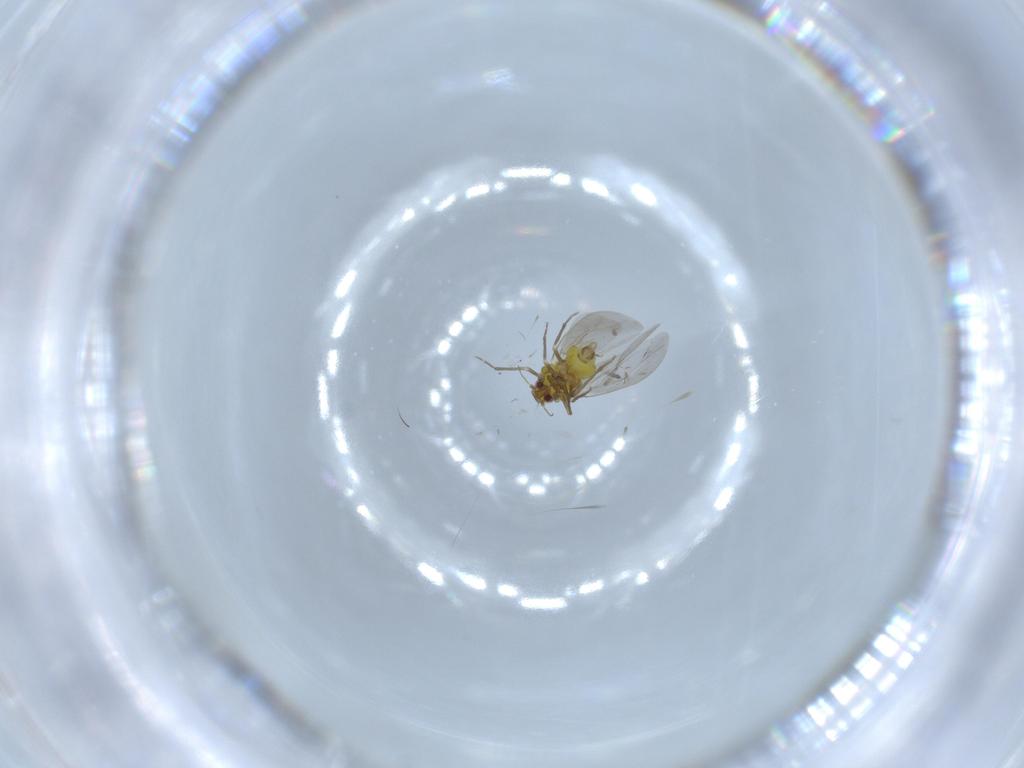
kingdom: Animalia
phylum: Arthropoda
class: Insecta
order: Hemiptera
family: Aleyrodidae
